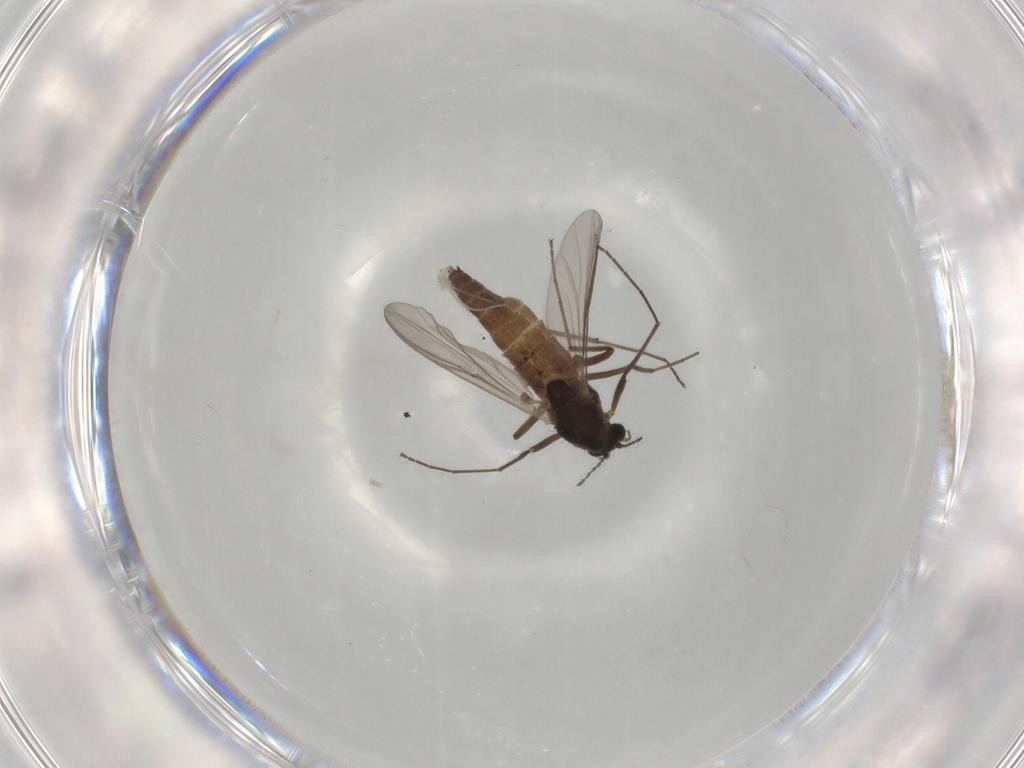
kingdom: Animalia
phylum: Arthropoda
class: Insecta
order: Diptera
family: Chironomidae
